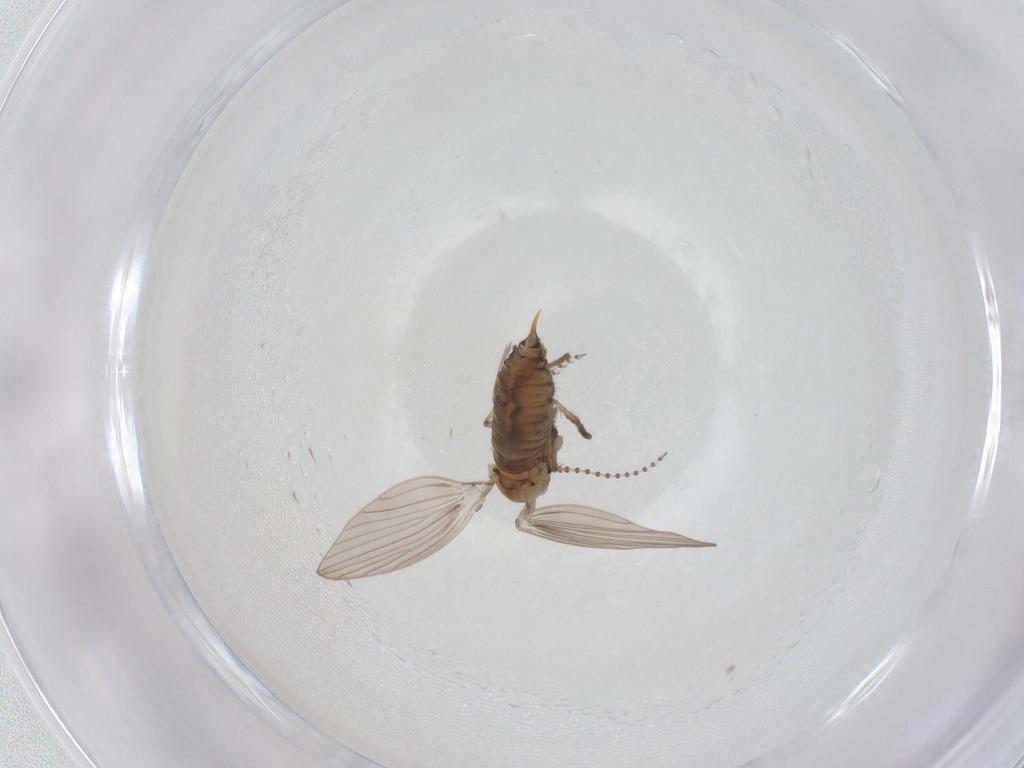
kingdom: Animalia
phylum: Arthropoda
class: Insecta
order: Diptera
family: Psychodidae
